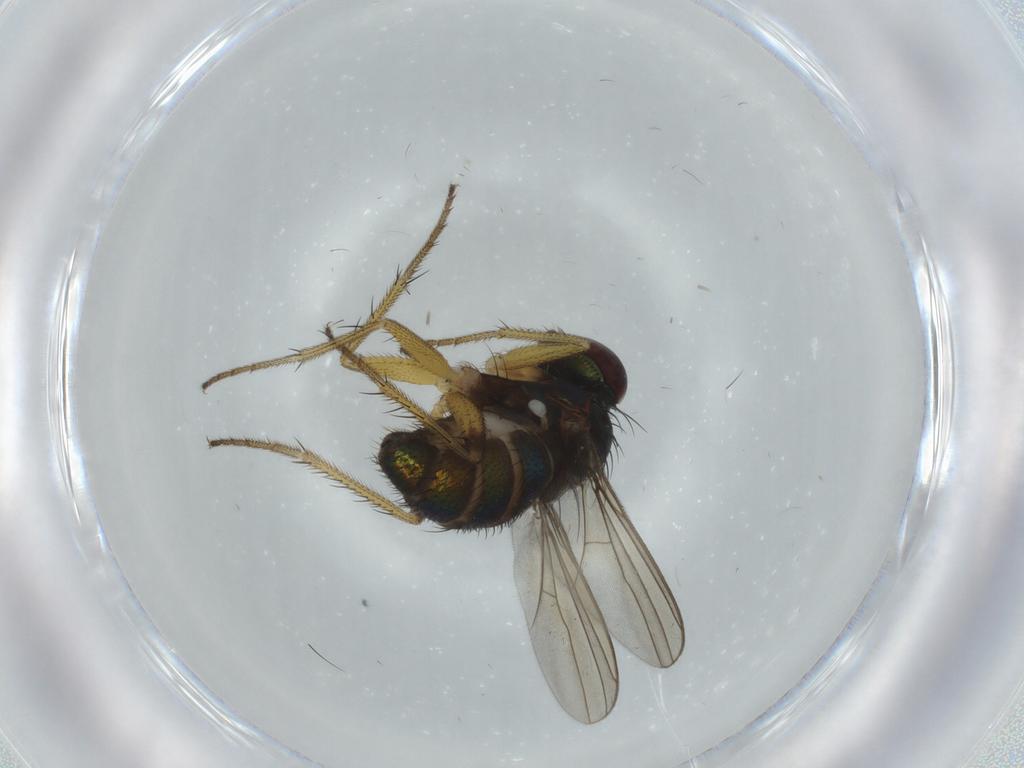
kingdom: Animalia
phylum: Arthropoda
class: Insecta
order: Diptera
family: Dolichopodidae
